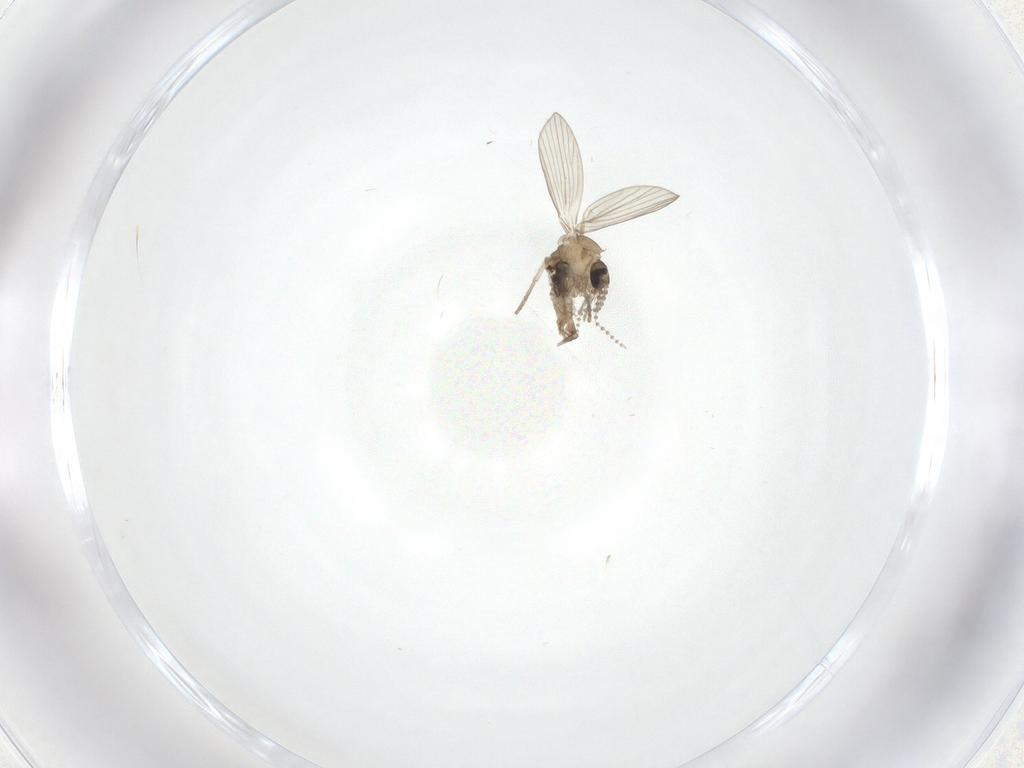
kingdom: Animalia
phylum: Arthropoda
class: Insecta
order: Diptera
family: Psychodidae
